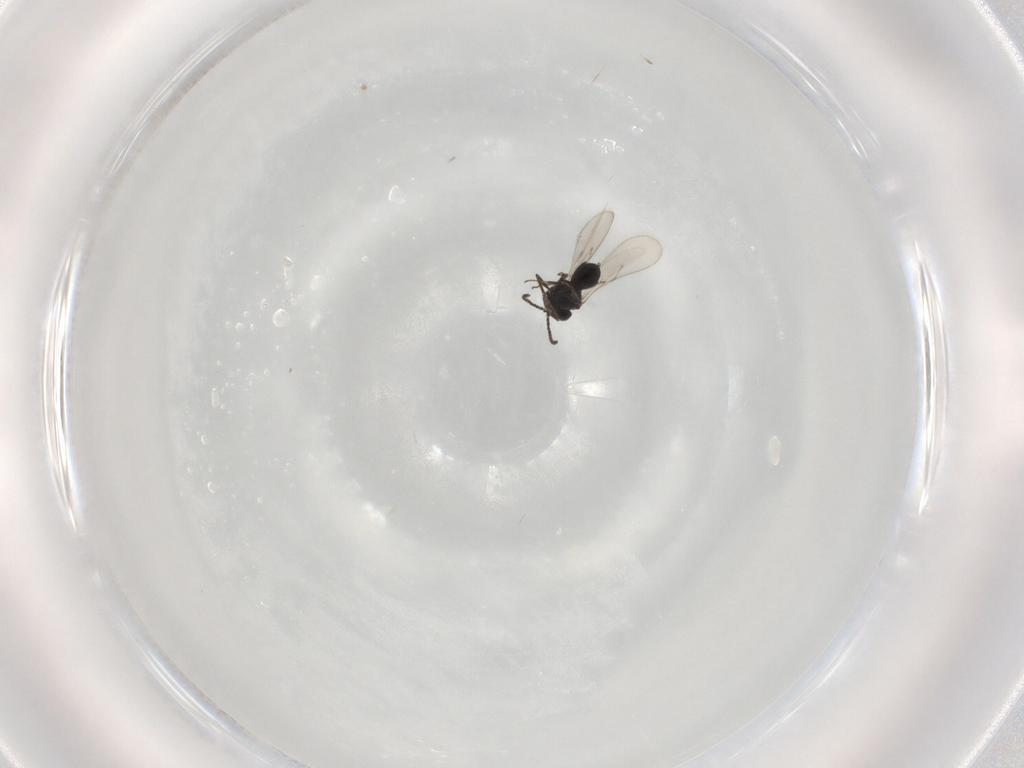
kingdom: Animalia
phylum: Arthropoda
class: Insecta
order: Hymenoptera
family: Scelionidae
